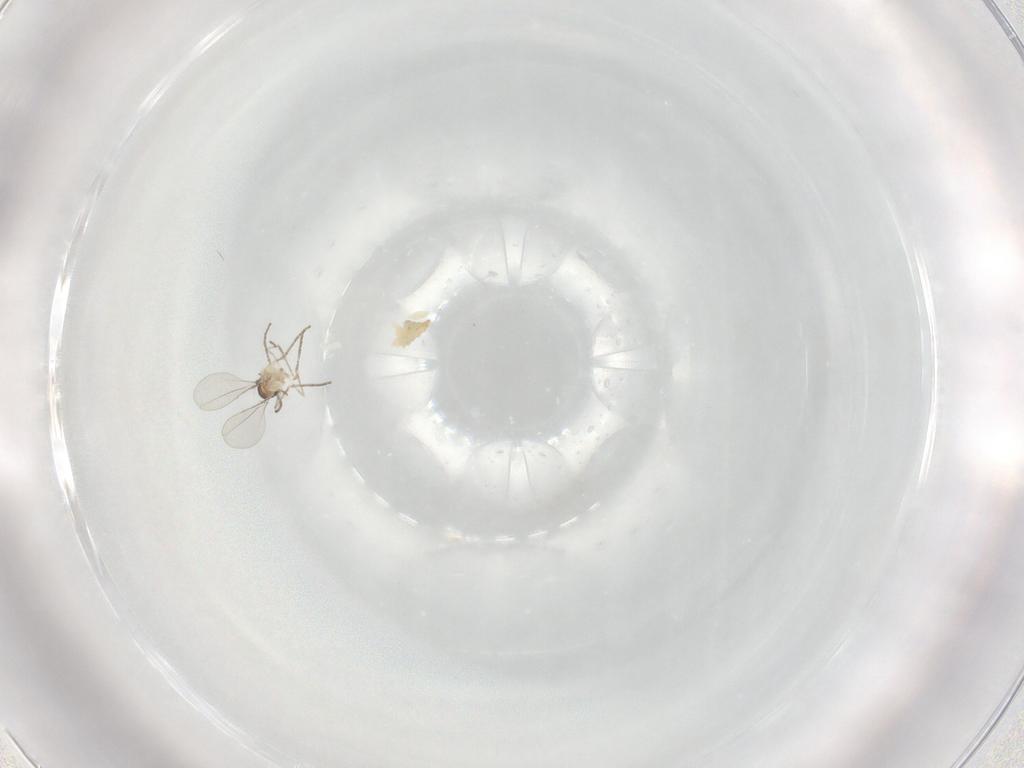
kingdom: Animalia
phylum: Arthropoda
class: Insecta
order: Diptera
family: Cecidomyiidae
